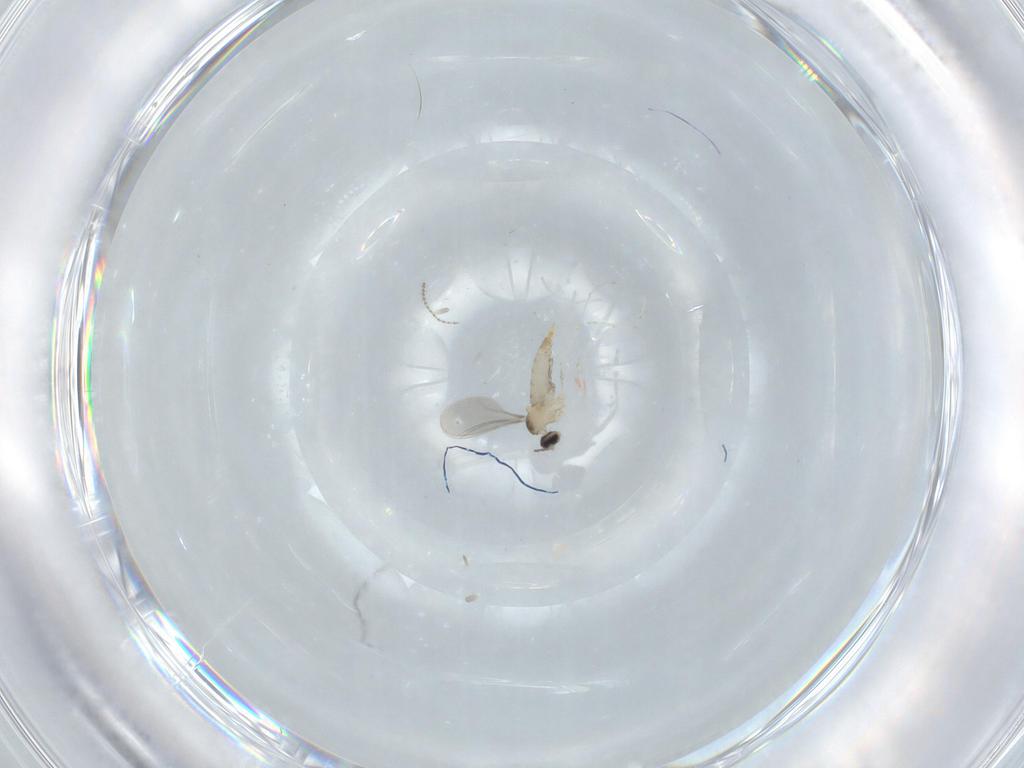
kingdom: Animalia
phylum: Arthropoda
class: Insecta
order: Diptera
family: Cecidomyiidae
